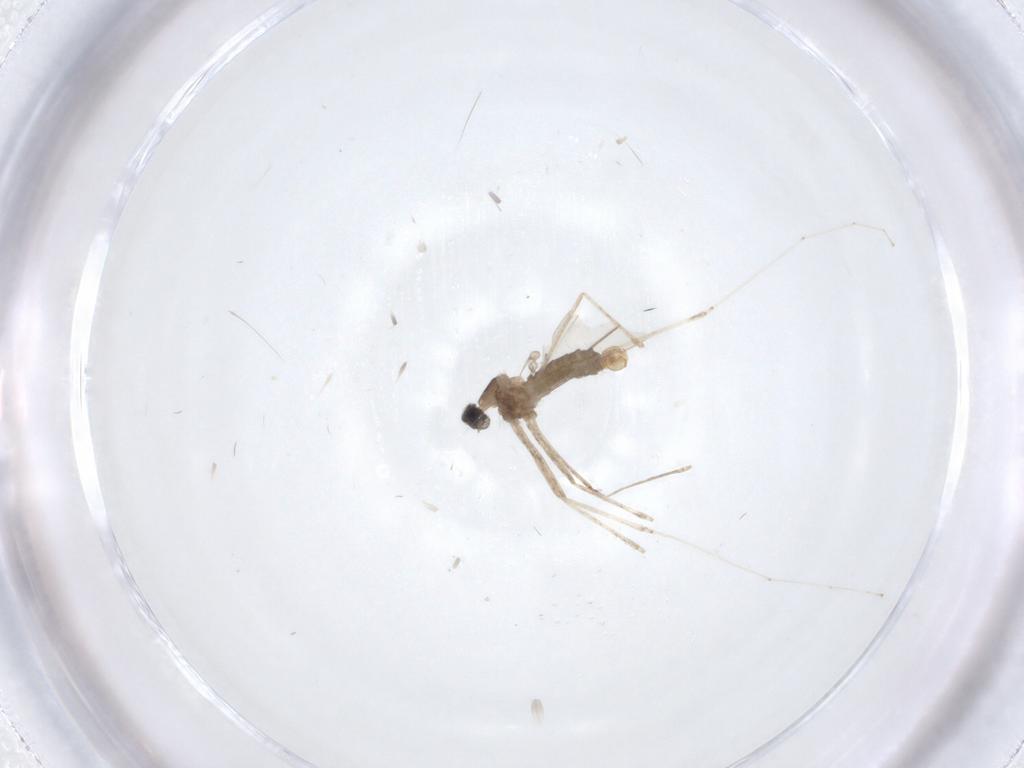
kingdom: Animalia
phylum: Arthropoda
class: Insecta
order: Diptera
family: Cecidomyiidae
